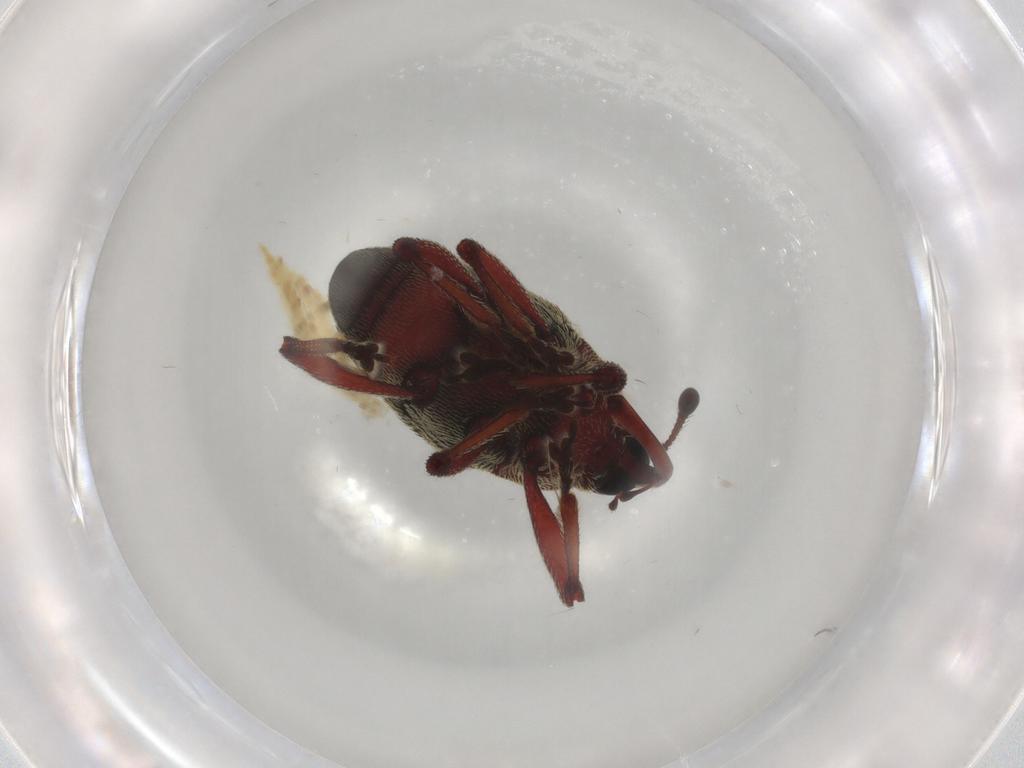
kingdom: Animalia
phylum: Arthropoda
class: Insecta
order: Coleoptera
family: Curculionidae
